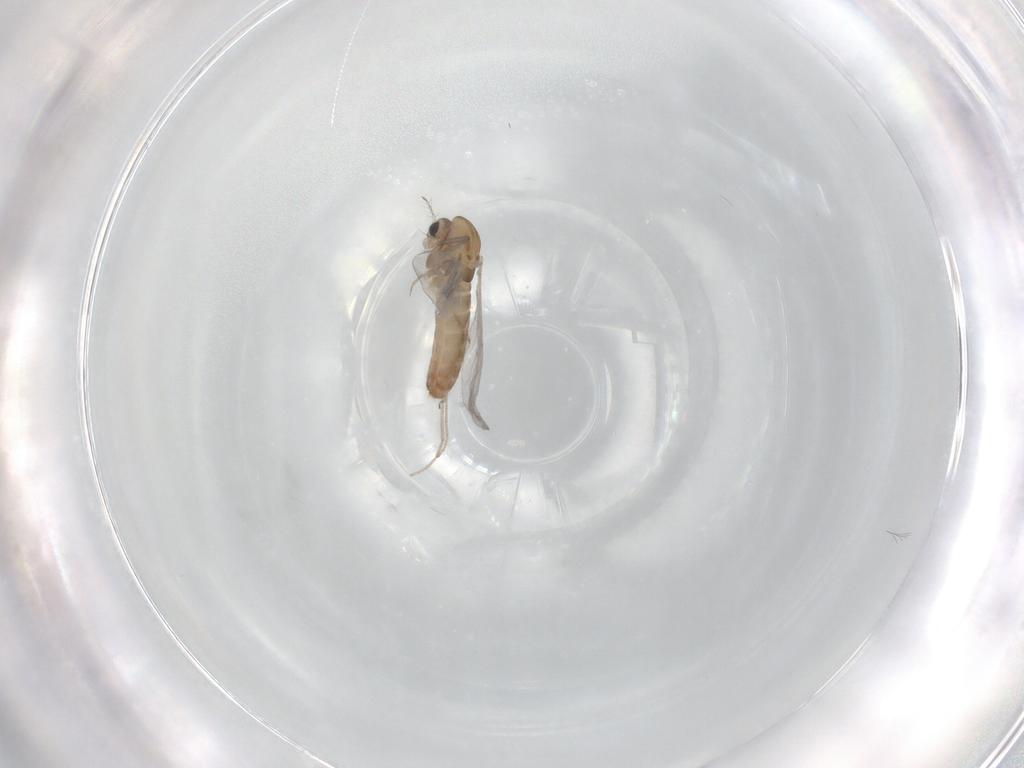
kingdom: Animalia
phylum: Arthropoda
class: Insecta
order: Diptera
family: Chironomidae
